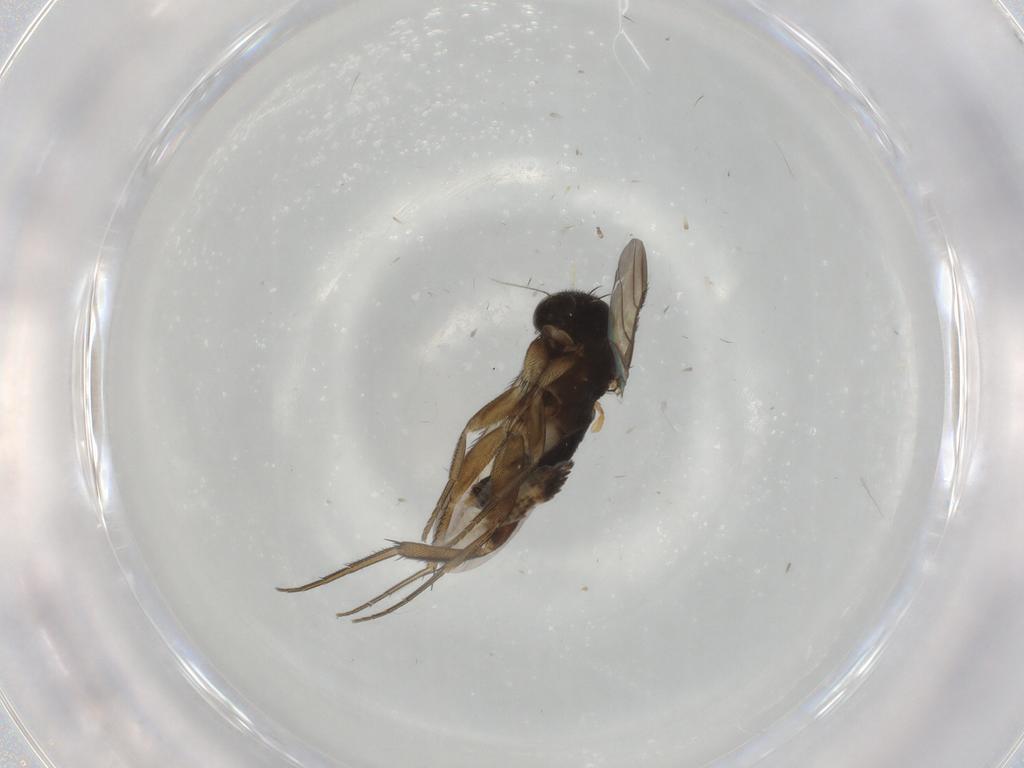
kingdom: Animalia
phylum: Arthropoda
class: Insecta
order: Diptera
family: Phoridae
